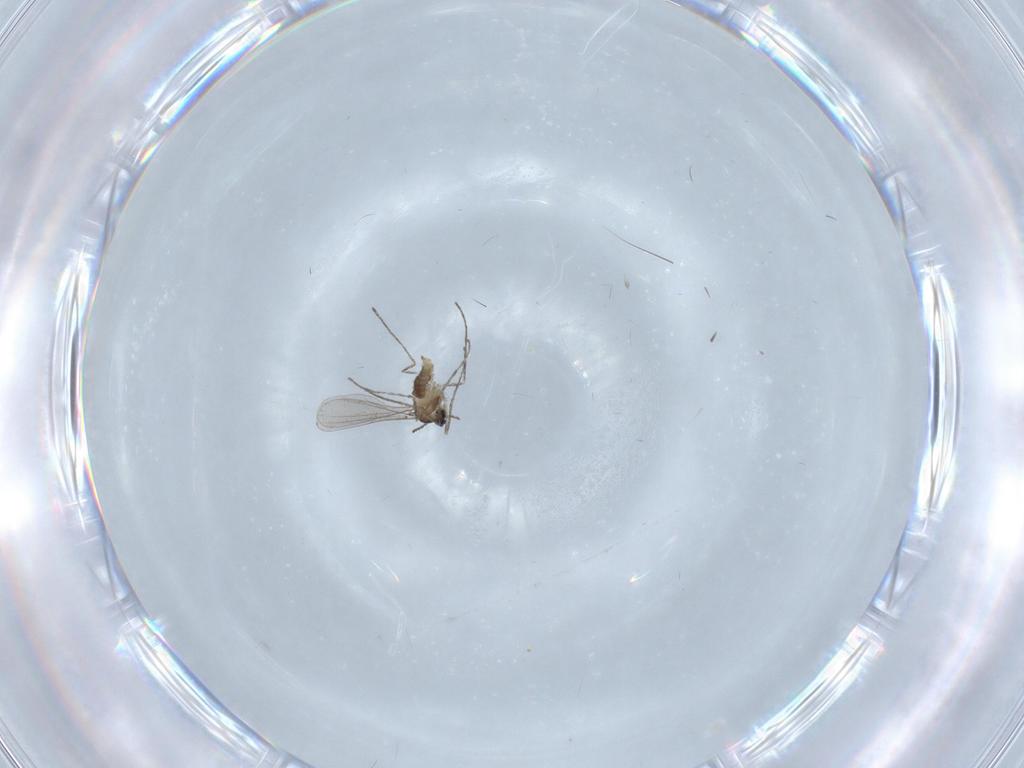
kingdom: Animalia
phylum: Arthropoda
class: Insecta
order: Diptera
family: Cecidomyiidae
